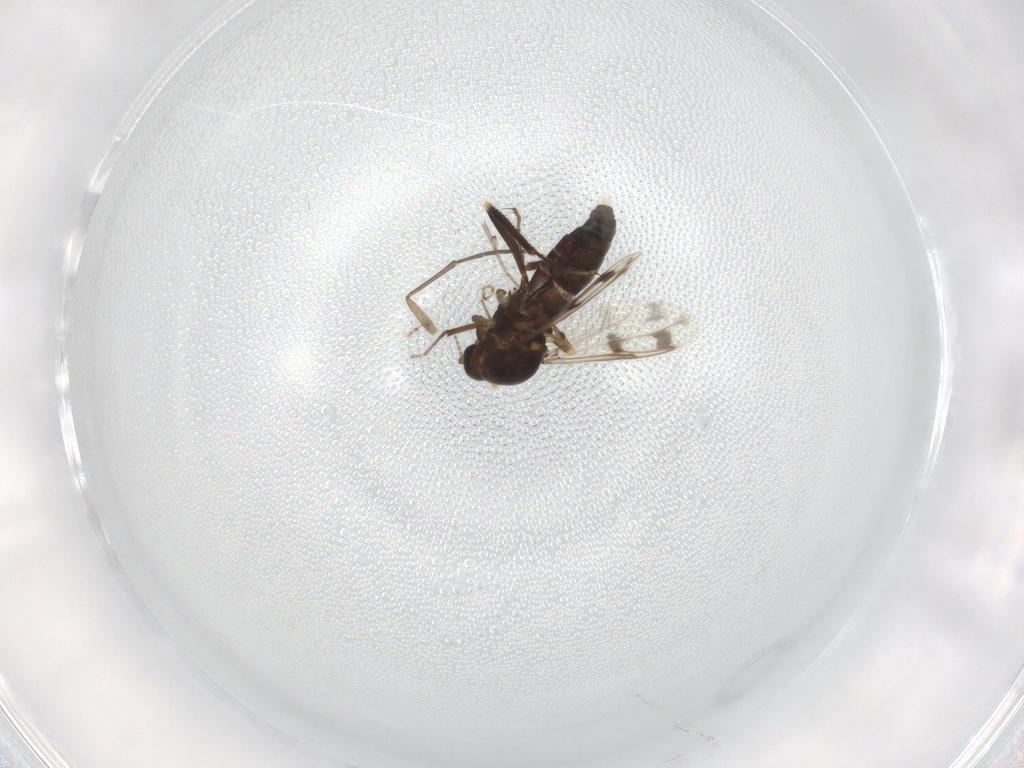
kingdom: Animalia
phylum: Arthropoda
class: Insecta
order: Diptera
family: Ceratopogonidae
